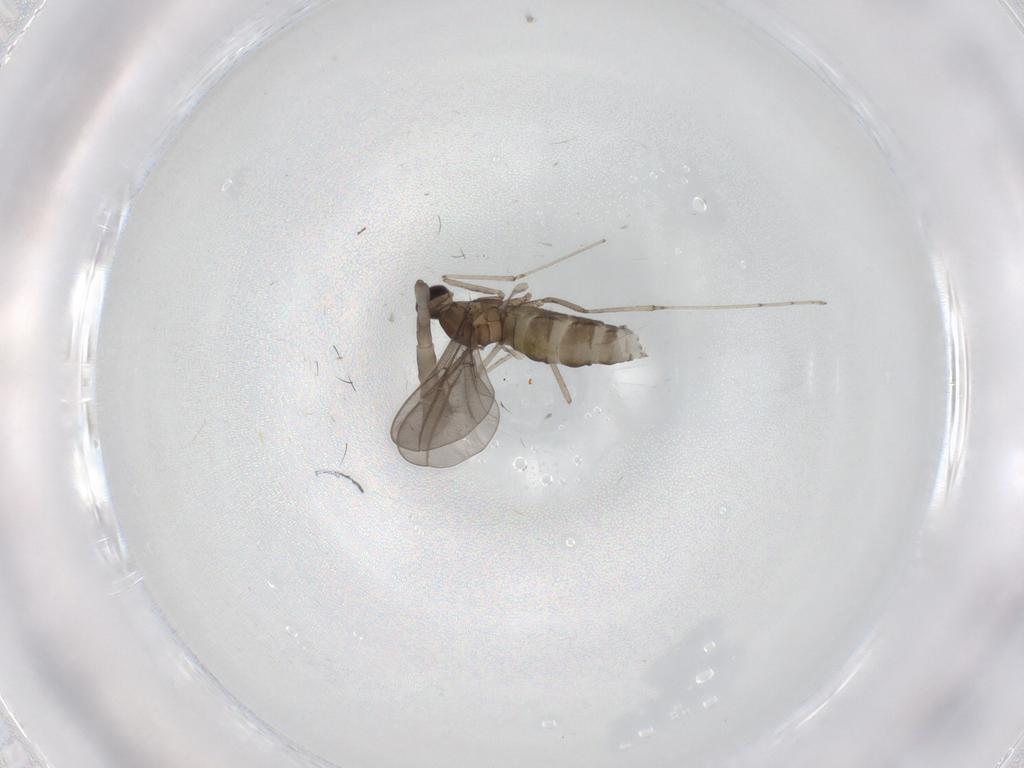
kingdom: Animalia
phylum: Arthropoda
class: Insecta
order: Diptera
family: Cecidomyiidae
